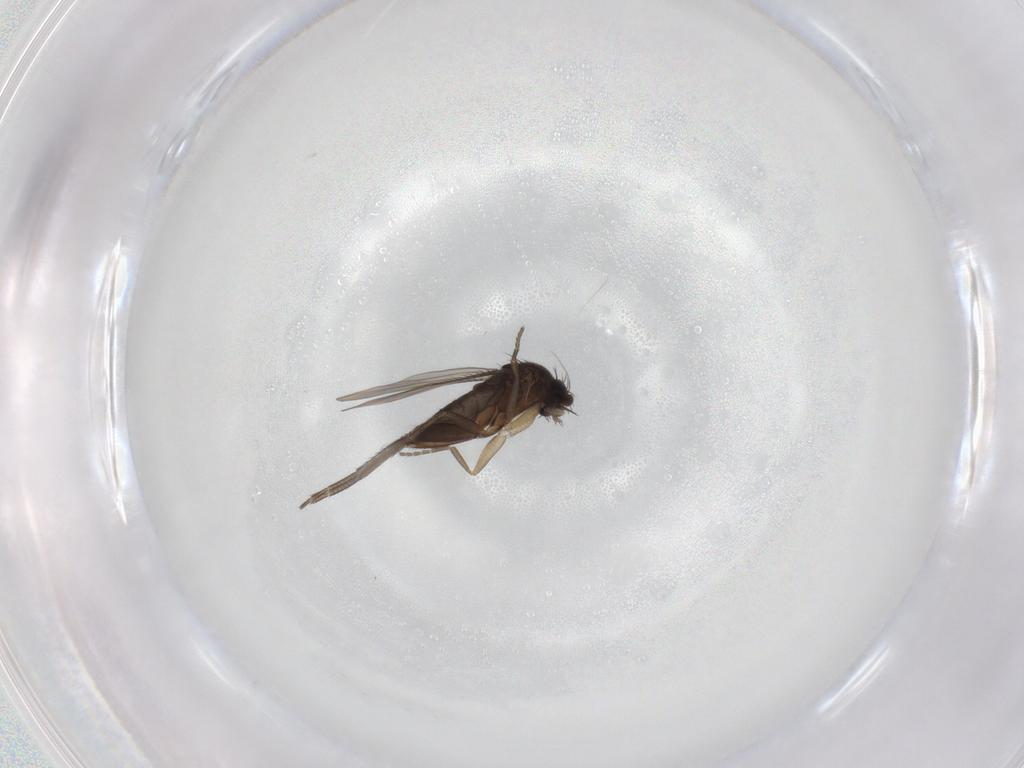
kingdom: Animalia
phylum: Arthropoda
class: Insecta
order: Diptera
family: Phoridae
